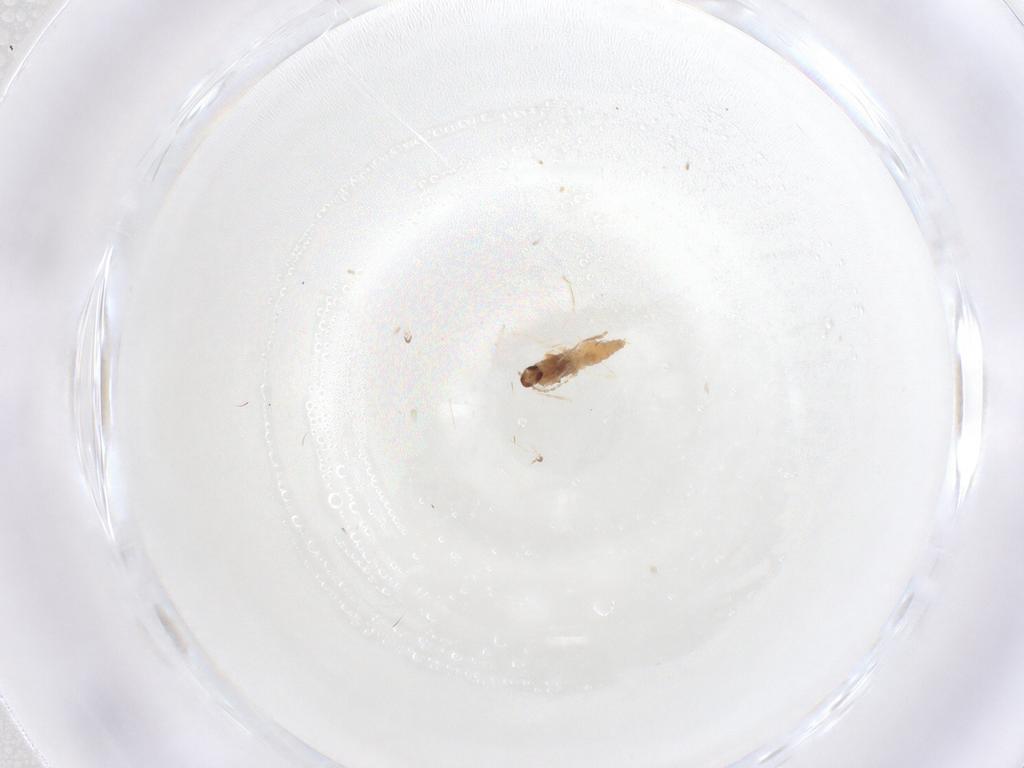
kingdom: Animalia
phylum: Arthropoda
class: Insecta
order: Diptera
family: Cecidomyiidae
